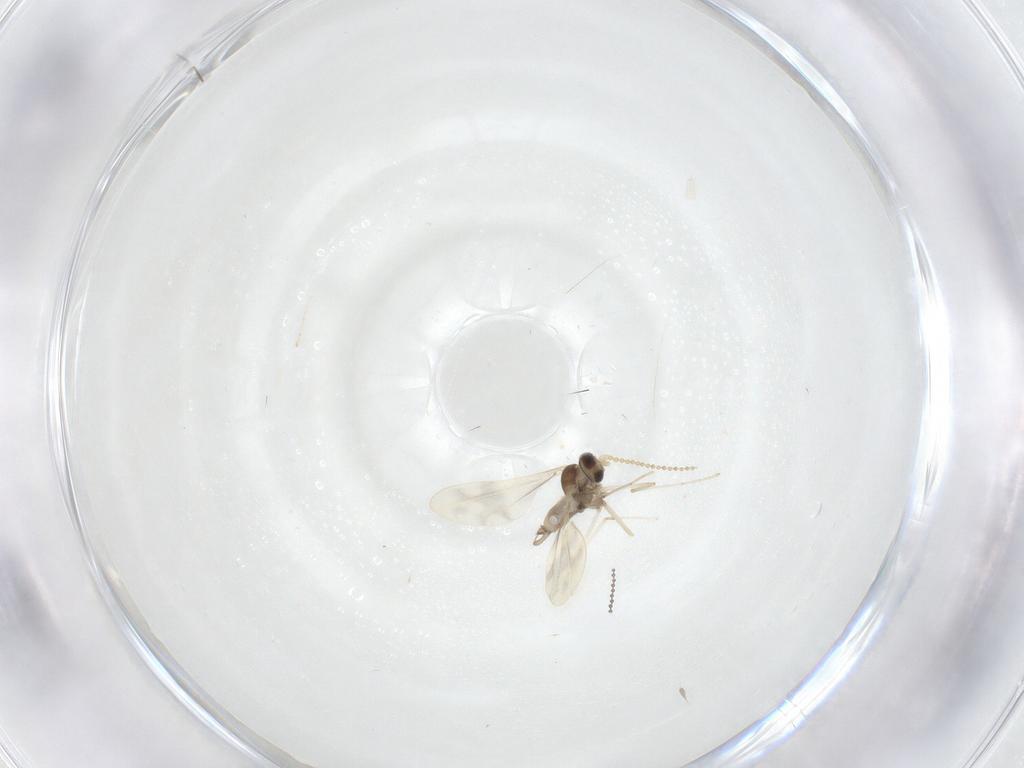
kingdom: Animalia
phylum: Arthropoda
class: Insecta
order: Diptera
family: Cecidomyiidae
